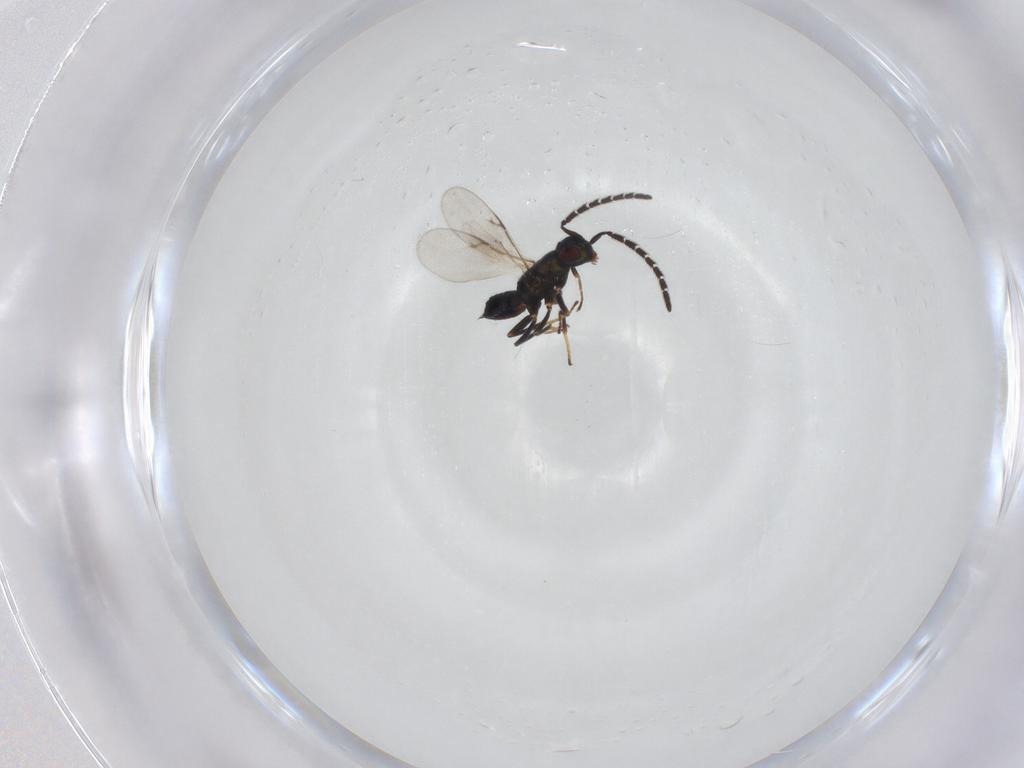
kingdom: Animalia
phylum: Arthropoda
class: Insecta
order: Hymenoptera
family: Encyrtidae
